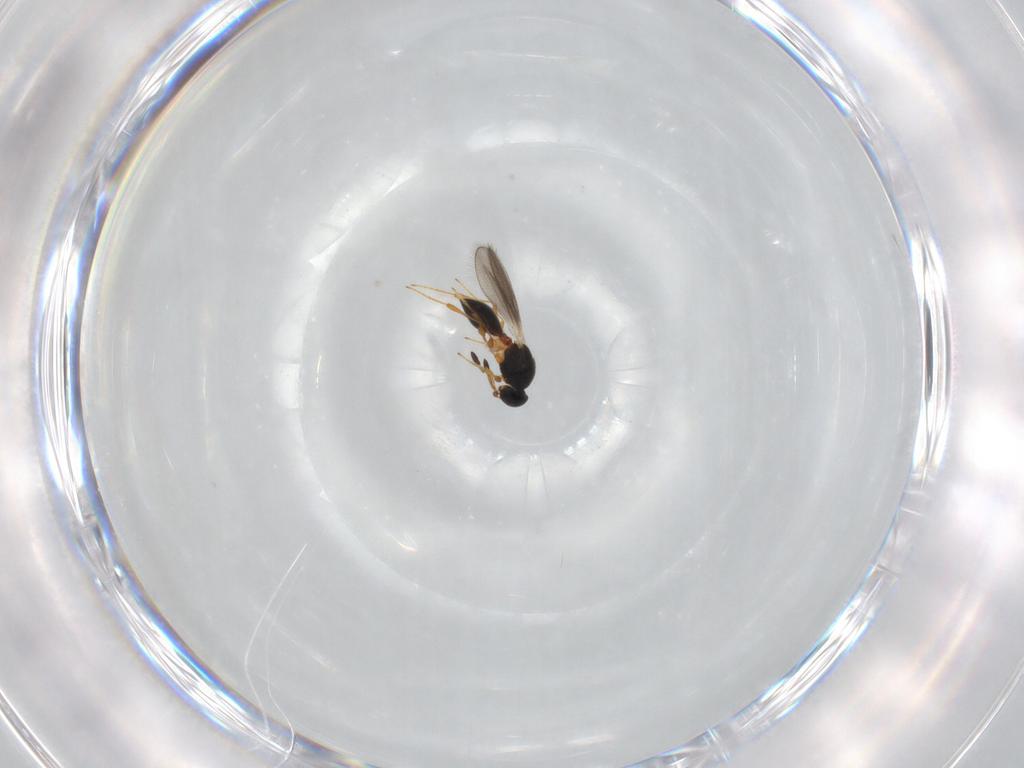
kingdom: Animalia
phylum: Arthropoda
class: Insecta
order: Hymenoptera
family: Platygastridae
